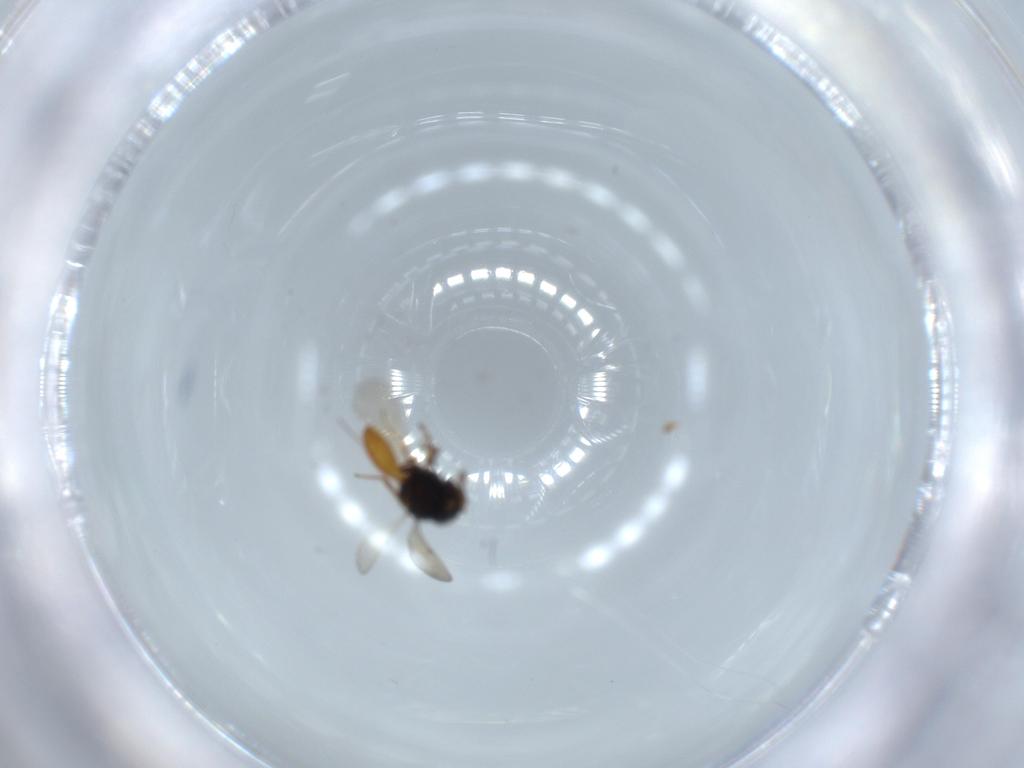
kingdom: Animalia
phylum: Arthropoda
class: Insecta
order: Hymenoptera
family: Scelionidae
